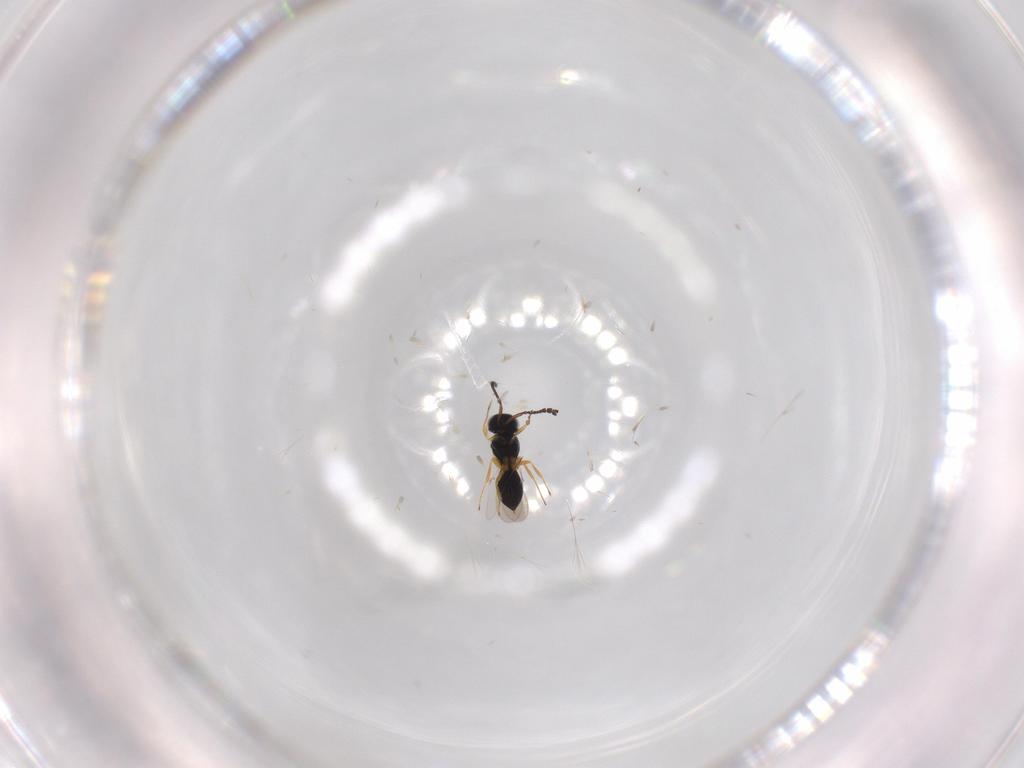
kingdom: Animalia
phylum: Arthropoda
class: Insecta
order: Hymenoptera
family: Scelionidae
